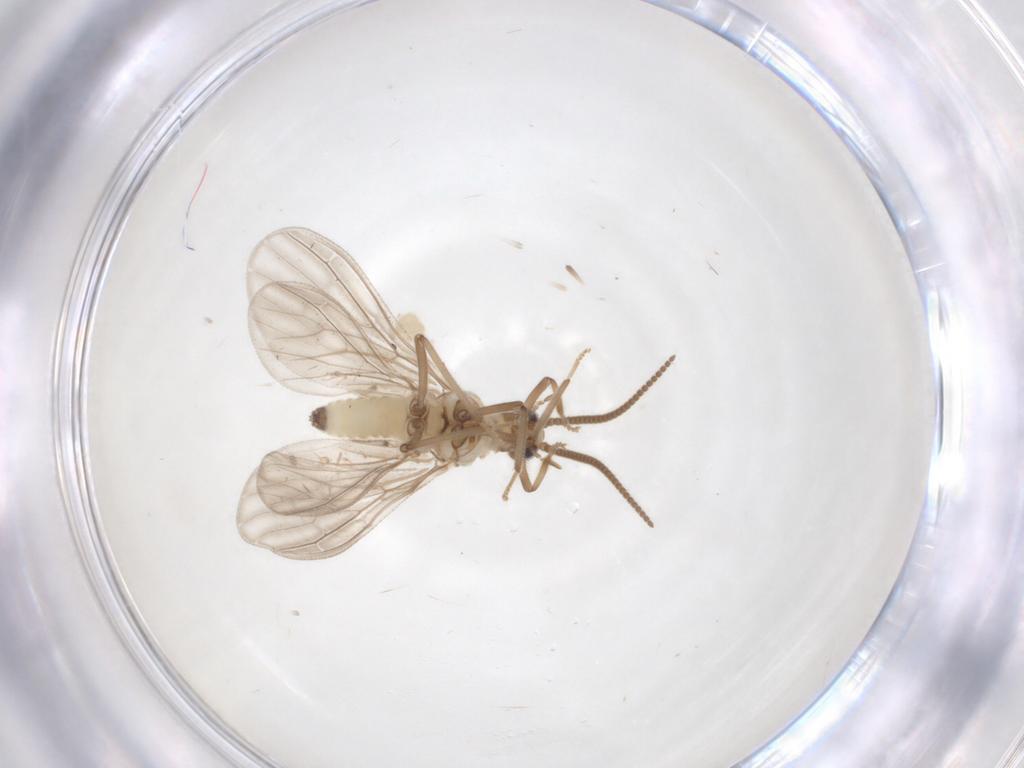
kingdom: Animalia
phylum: Arthropoda
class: Insecta
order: Neuroptera
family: Coniopterygidae
